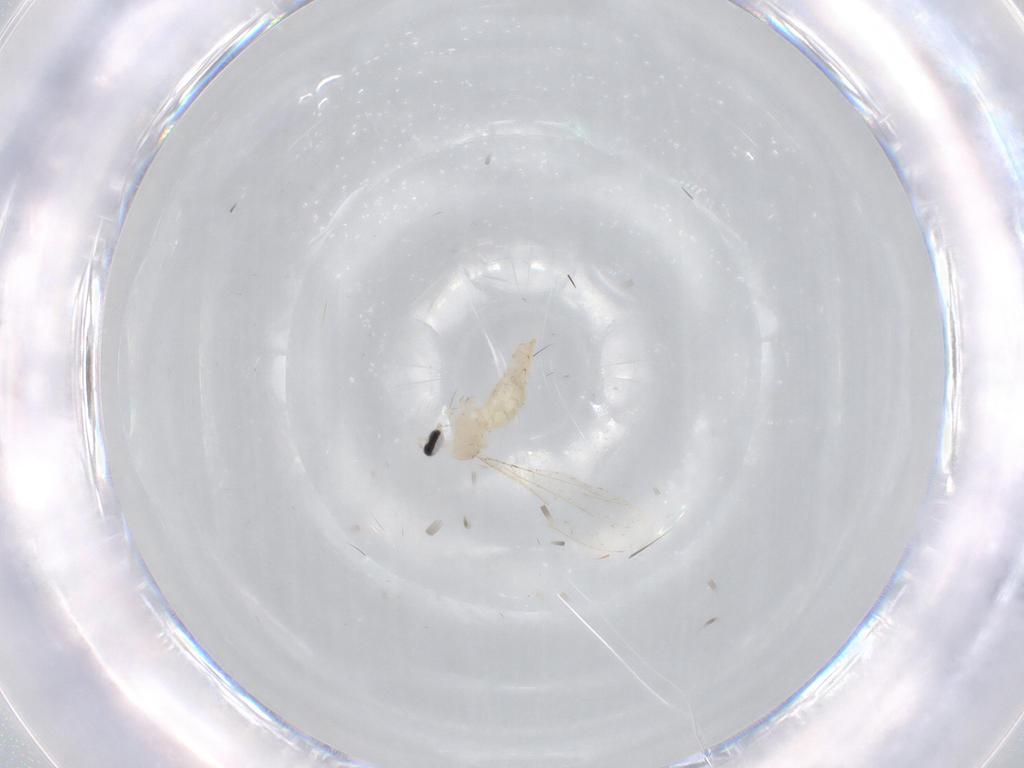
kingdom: Animalia
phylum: Arthropoda
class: Insecta
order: Diptera
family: Cecidomyiidae
